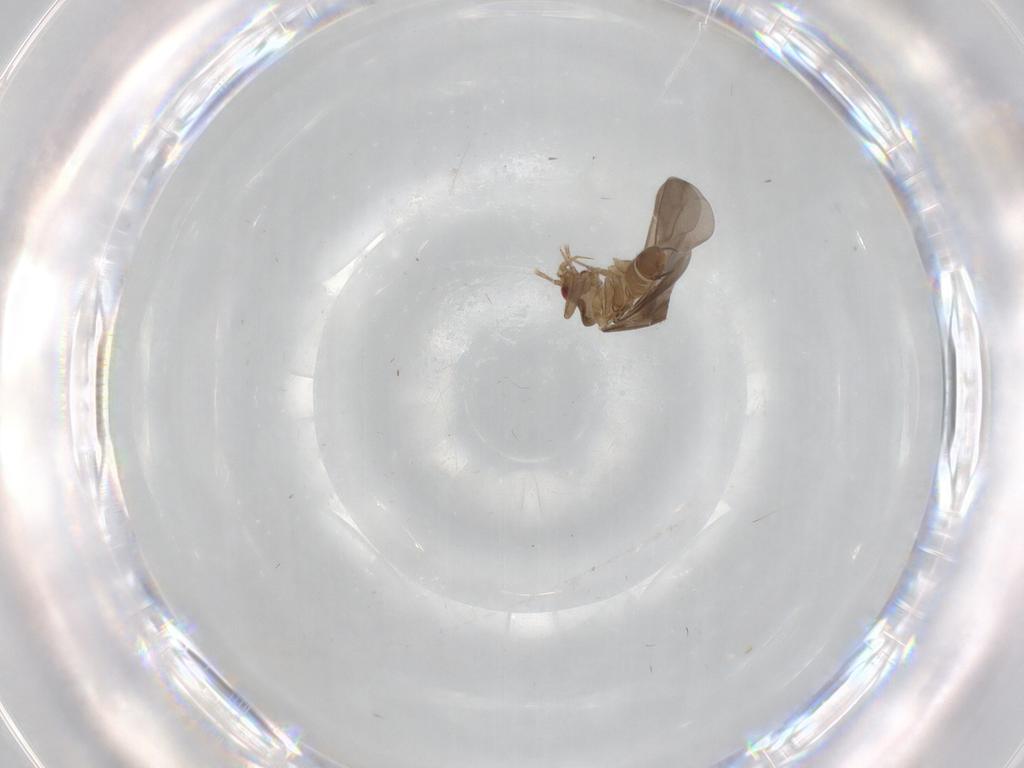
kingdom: Animalia
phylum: Arthropoda
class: Insecta
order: Hemiptera
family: Ceratocombidae
